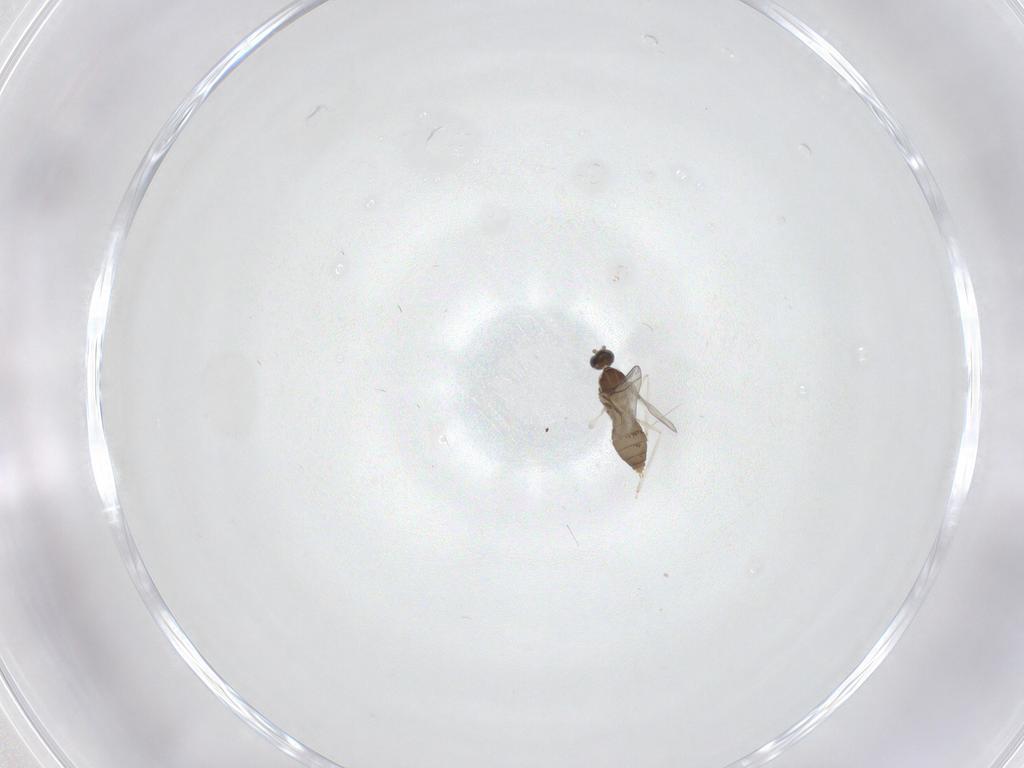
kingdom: Animalia
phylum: Arthropoda
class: Insecta
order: Diptera
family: Cecidomyiidae
